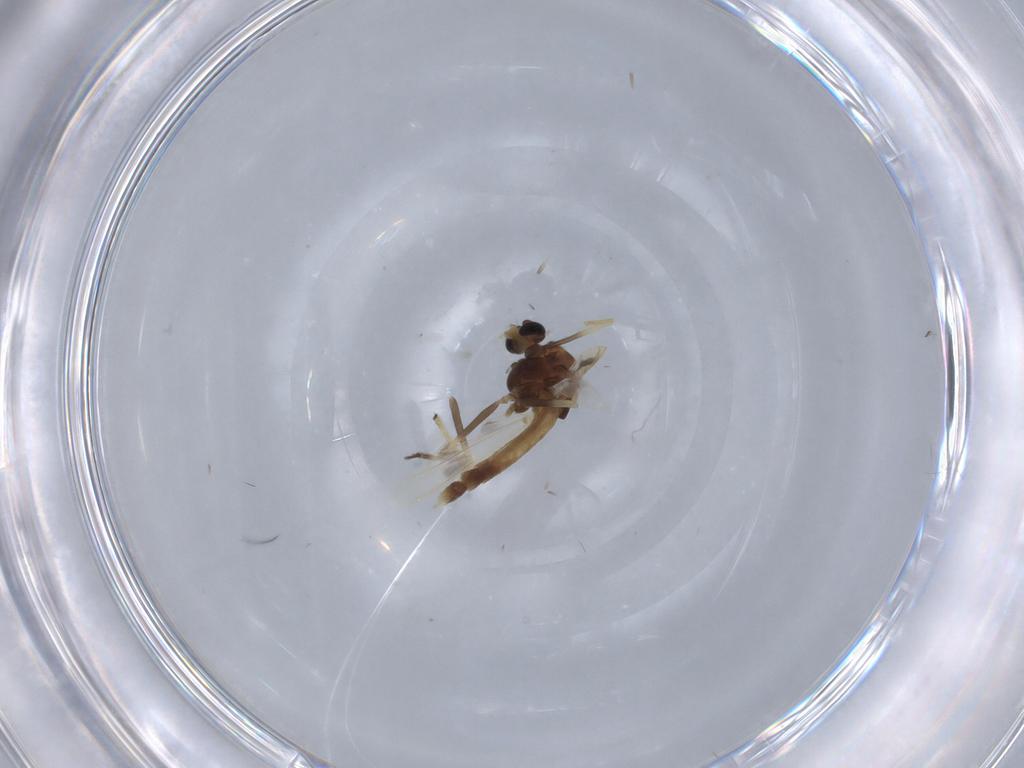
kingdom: Animalia
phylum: Arthropoda
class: Insecta
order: Diptera
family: Chironomidae
